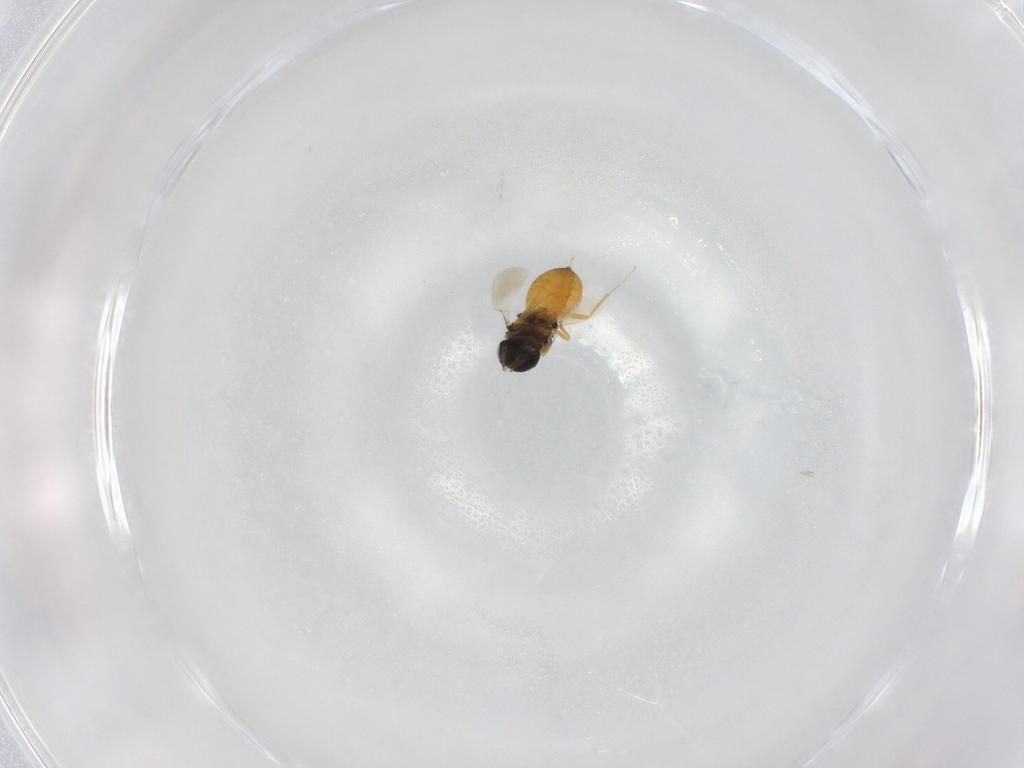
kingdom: Animalia
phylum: Arthropoda
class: Insecta
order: Hymenoptera
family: Scelionidae
